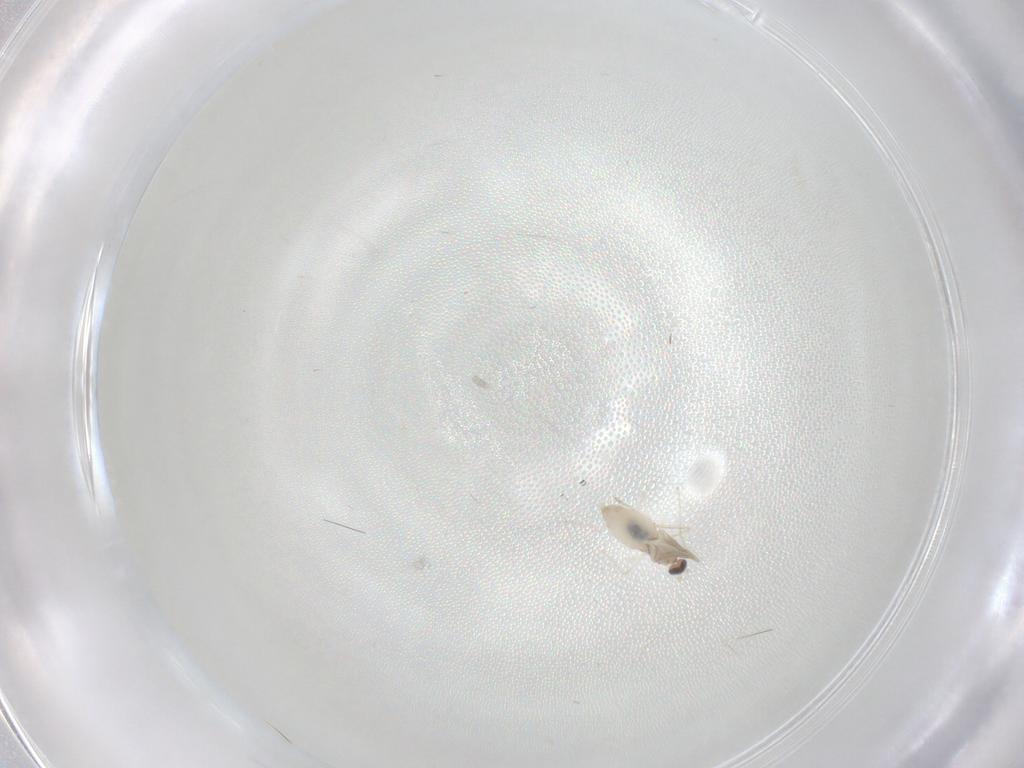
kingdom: Animalia
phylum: Arthropoda
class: Insecta
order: Diptera
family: Cecidomyiidae
